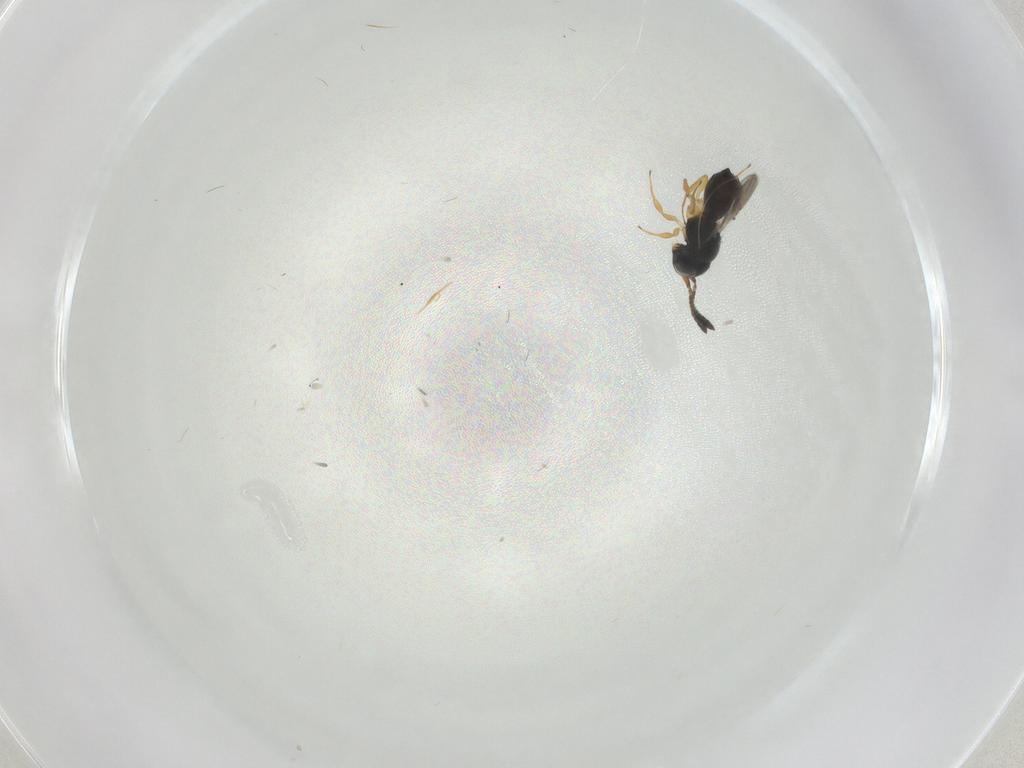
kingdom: Animalia
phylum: Arthropoda
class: Insecta
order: Hymenoptera
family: Scelionidae
